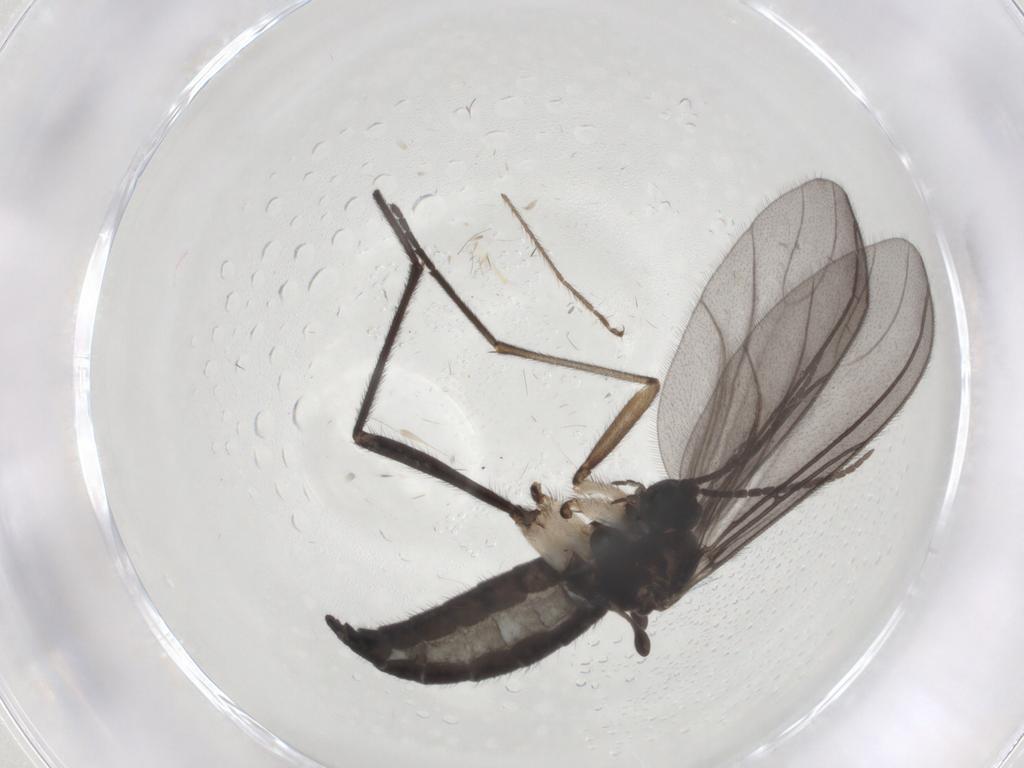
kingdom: Animalia
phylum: Arthropoda
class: Insecta
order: Diptera
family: Sciaridae
